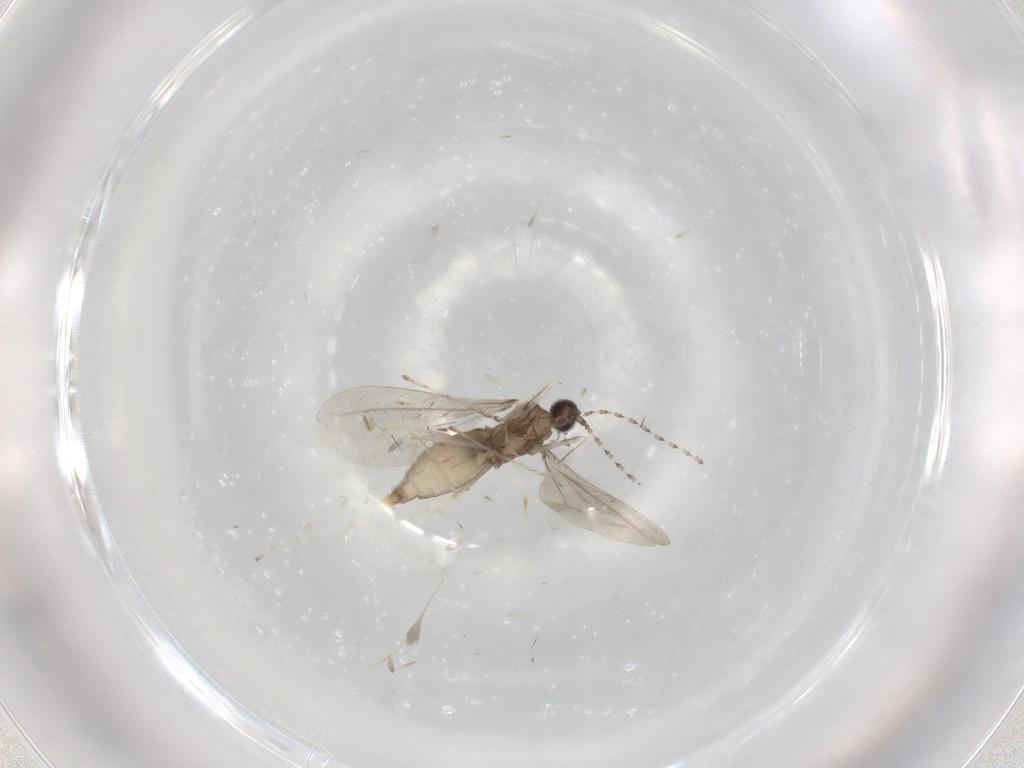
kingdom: Animalia
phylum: Arthropoda
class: Insecta
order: Diptera
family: Cecidomyiidae
